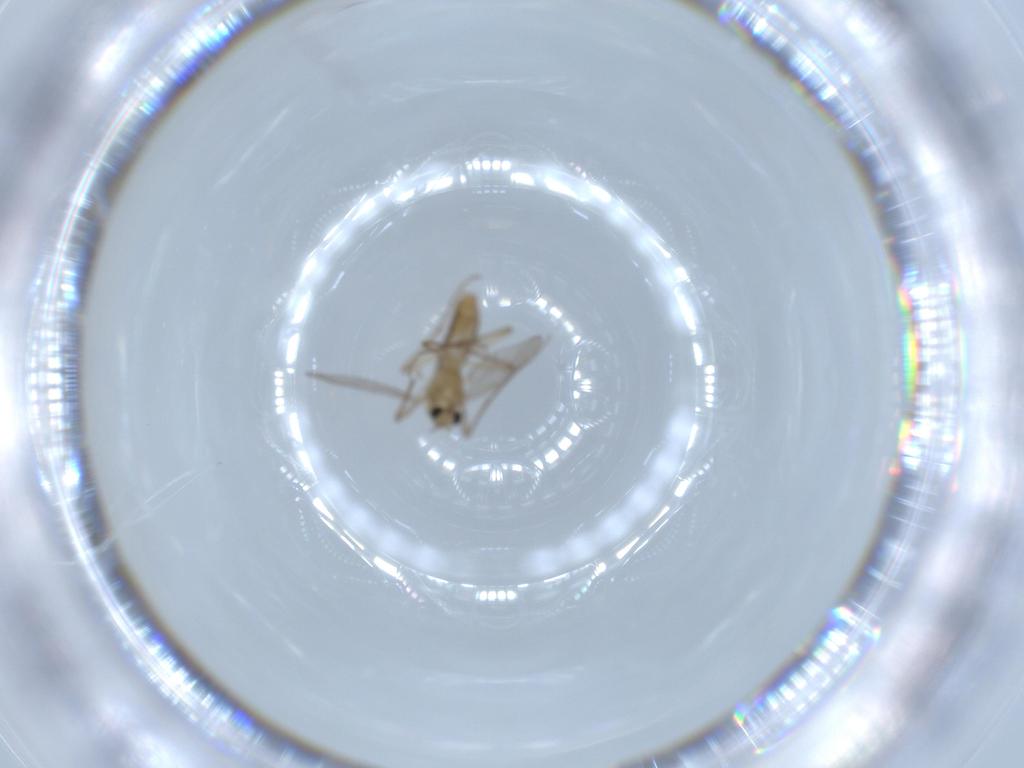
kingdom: Animalia
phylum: Arthropoda
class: Insecta
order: Diptera
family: Chironomidae
